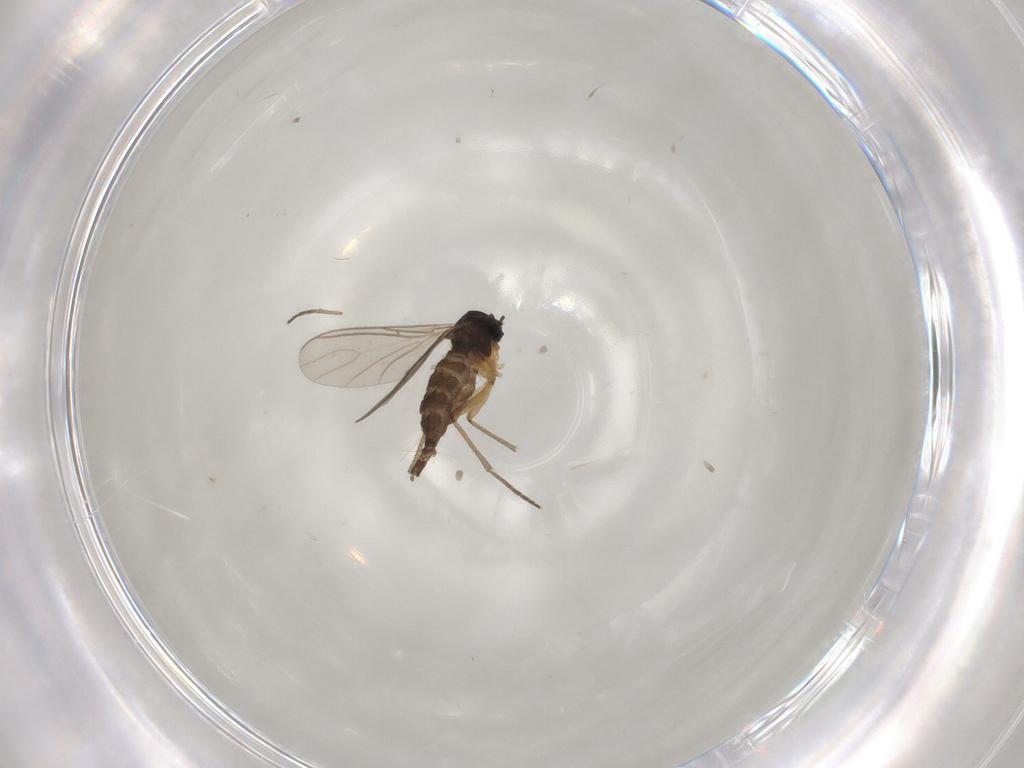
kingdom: Animalia
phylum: Arthropoda
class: Insecta
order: Diptera
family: Sciaridae
